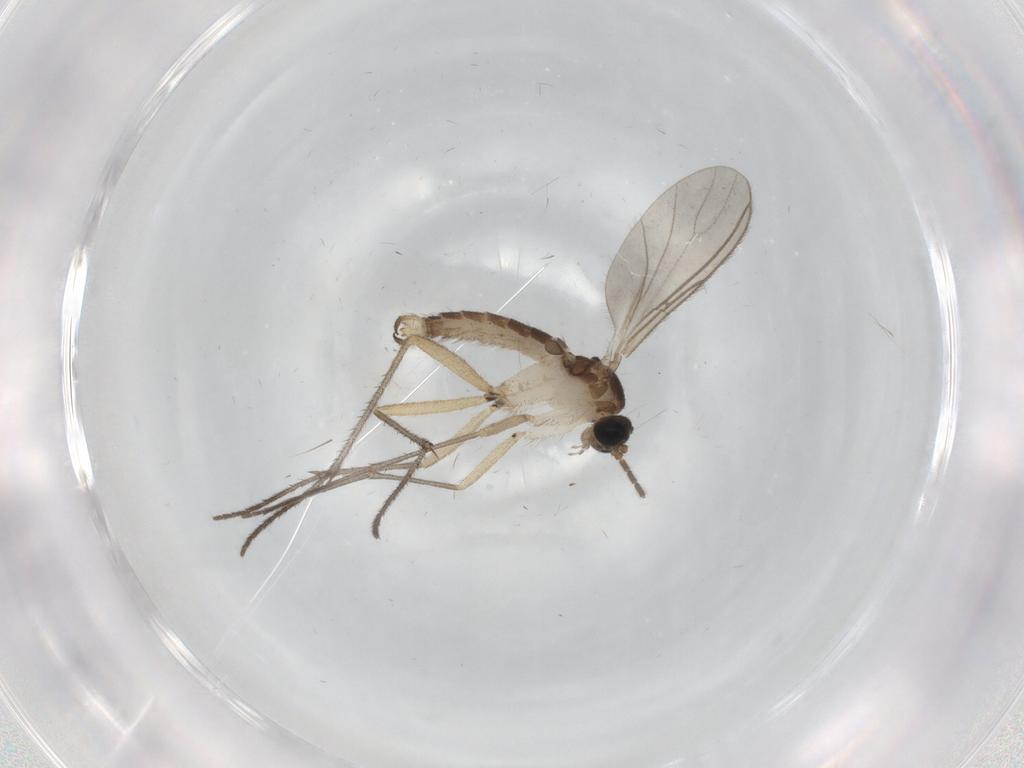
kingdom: Animalia
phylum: Arthropoda
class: Insecta
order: Diptera
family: Sciaridae
